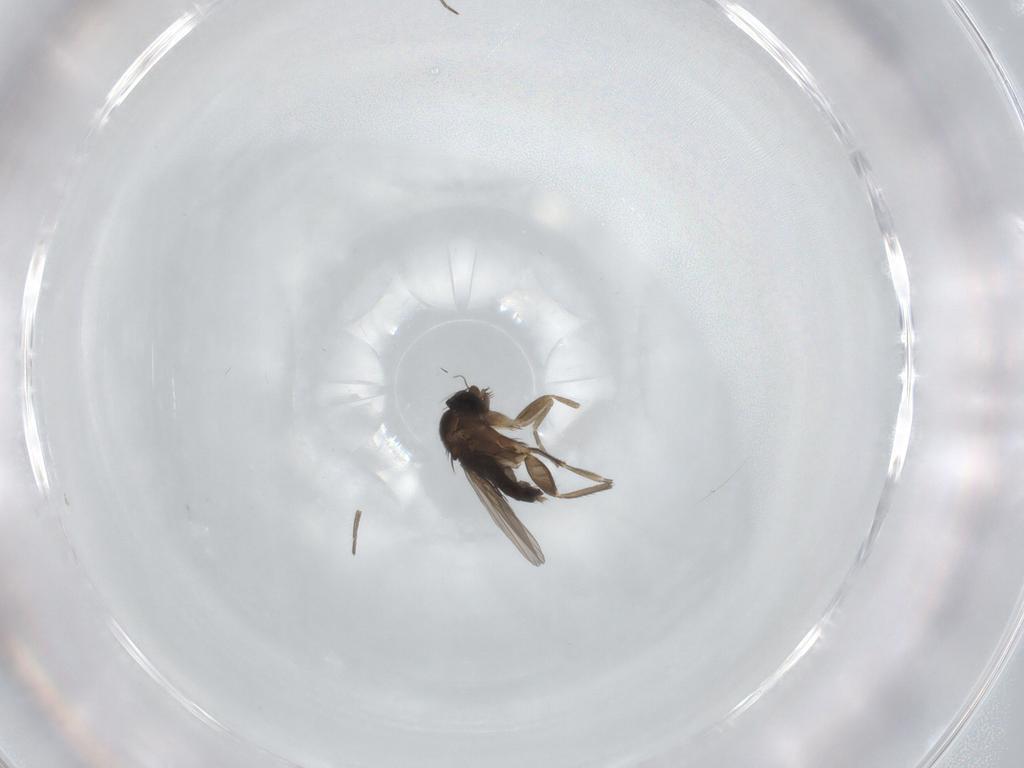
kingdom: Animalia
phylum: Arthropoda
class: Insecta
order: Diptera
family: Phoridae
